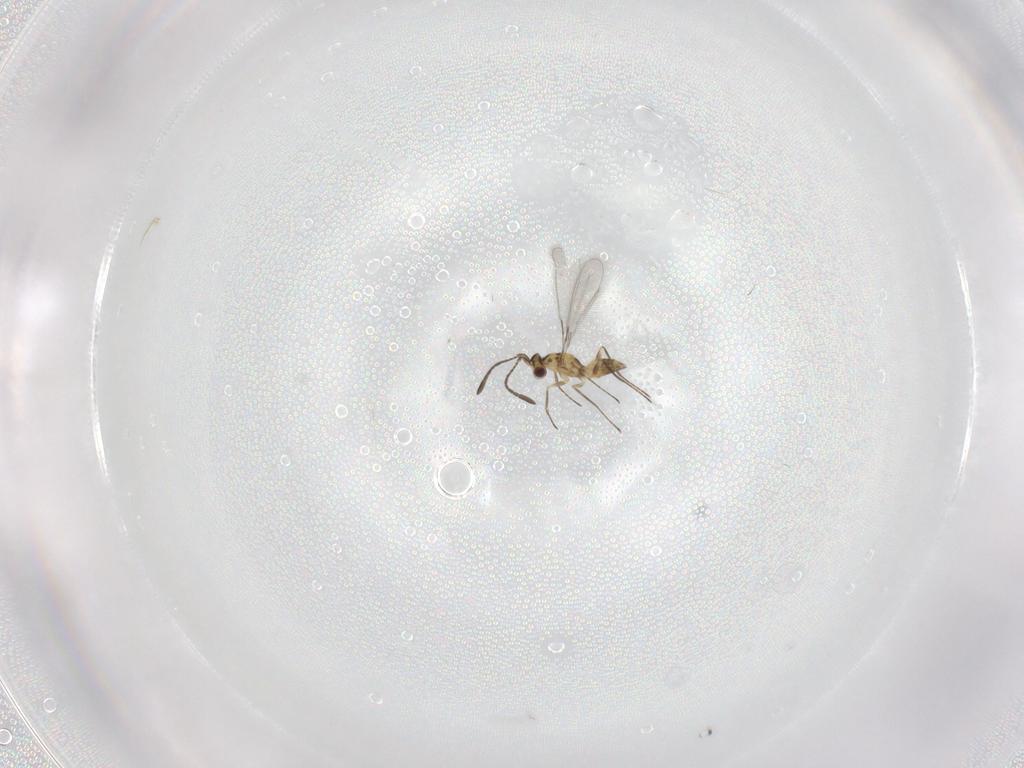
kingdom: Animalia
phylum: Arthropoda
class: Insecta
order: Hymenoptera
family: Mymaridae
